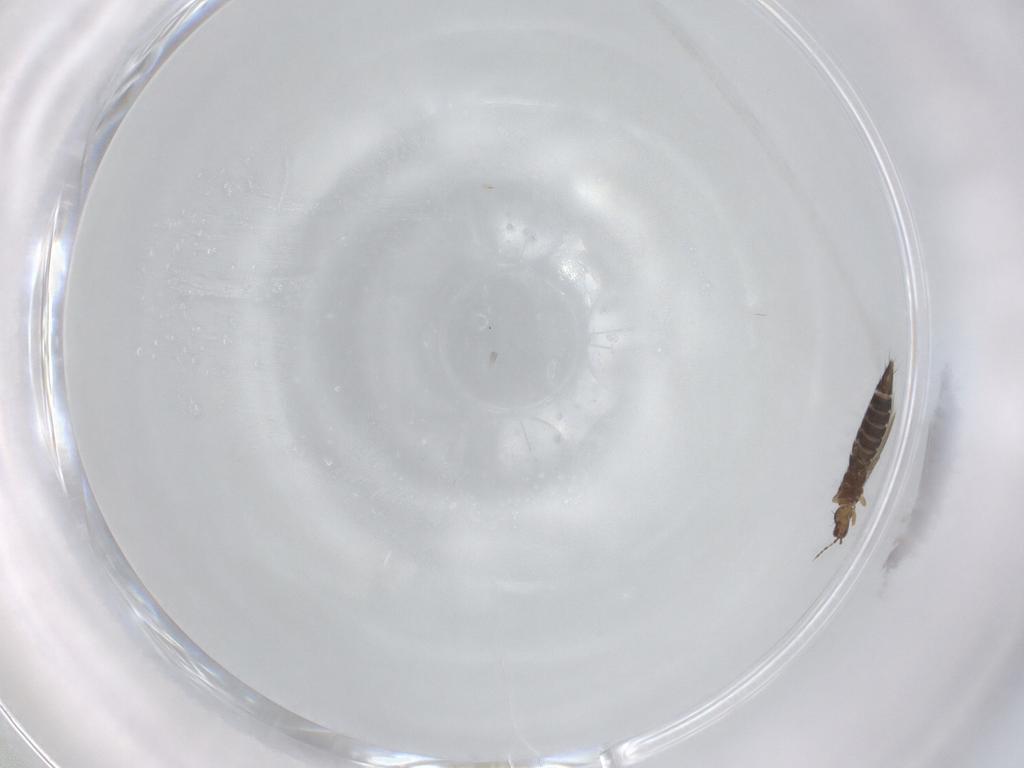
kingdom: Animalia
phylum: Arthropoda
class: Insecta
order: Thysanoptera
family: Thripidae
